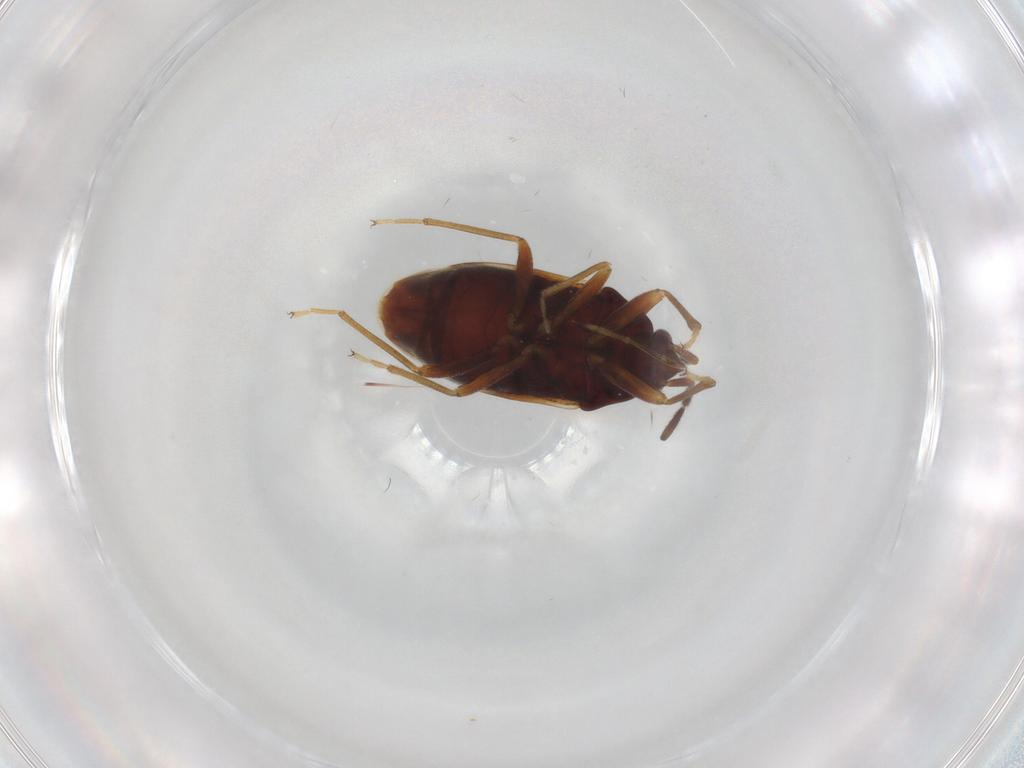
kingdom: Animalia
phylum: Arthropoda
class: Insecta
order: Hemiptera
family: Rhyparochromidae
